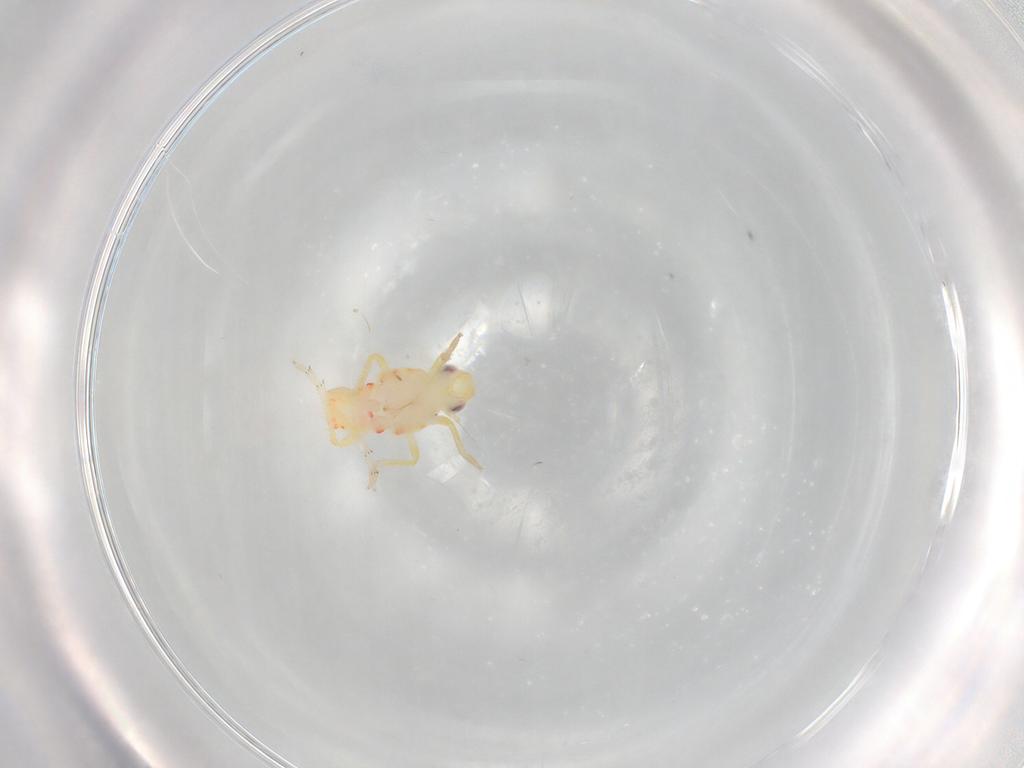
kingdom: Animalia
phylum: Arthropoda
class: Insecta
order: Hemiptera
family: Tropiduchidae
